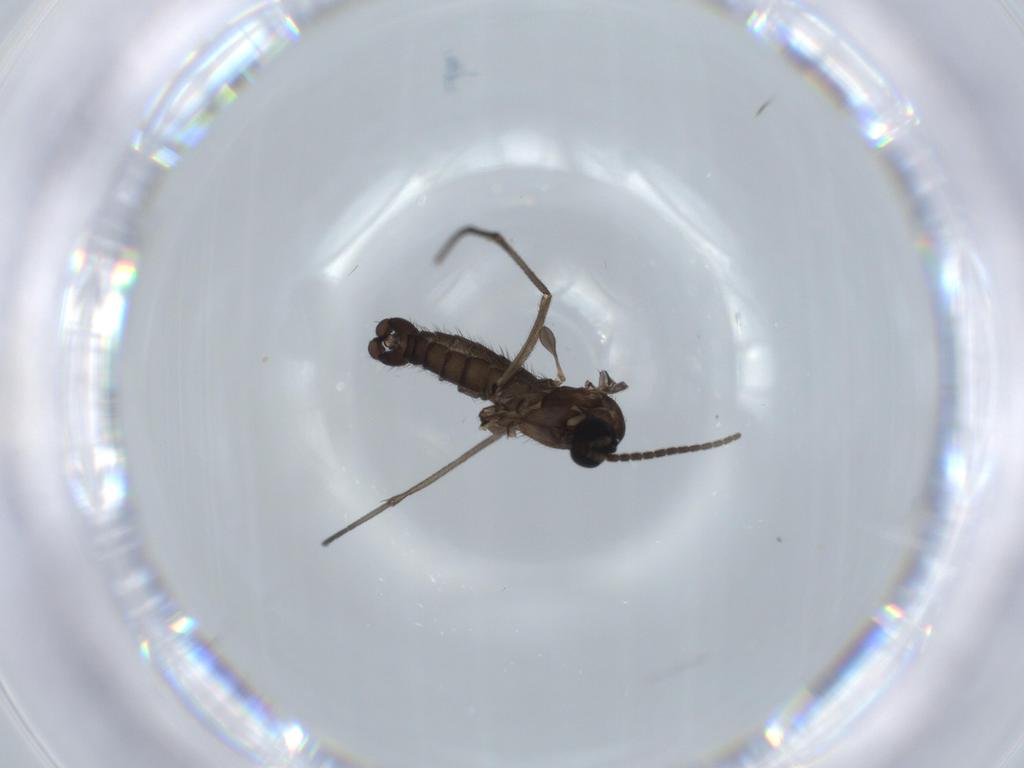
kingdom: Animalia
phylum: Arthropoda
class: Insecta
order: Diptera
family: Sciaridae
